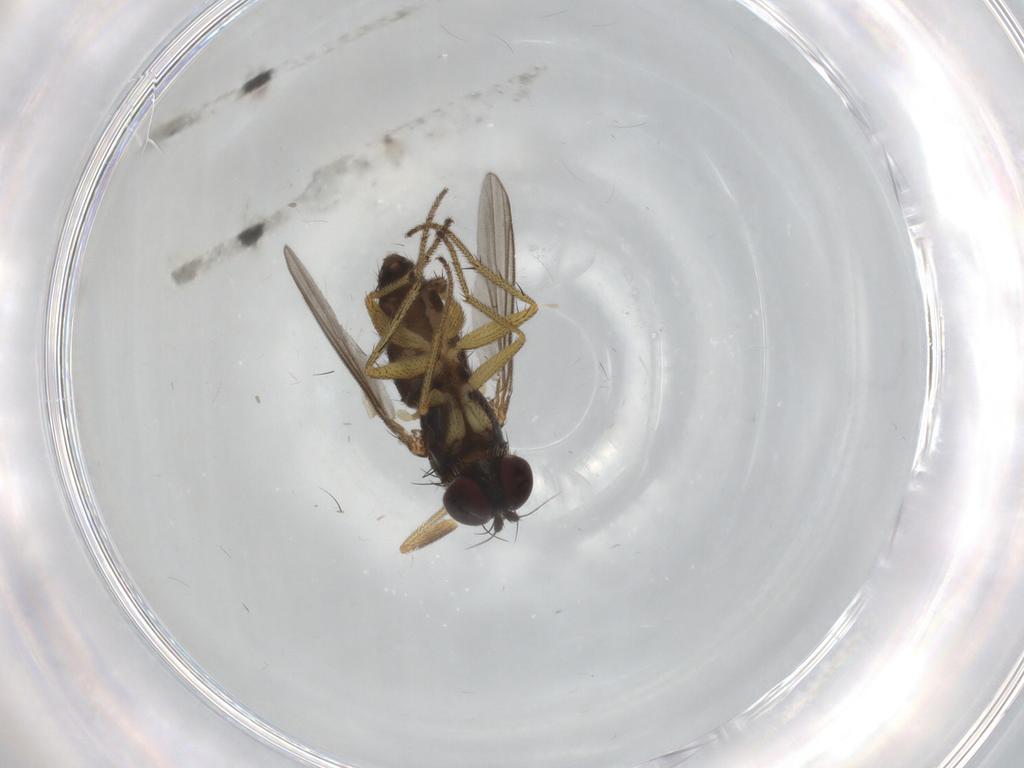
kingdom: Animalia
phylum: Arthropoda
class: Insecta
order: Diptera
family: Dolichopodidae
